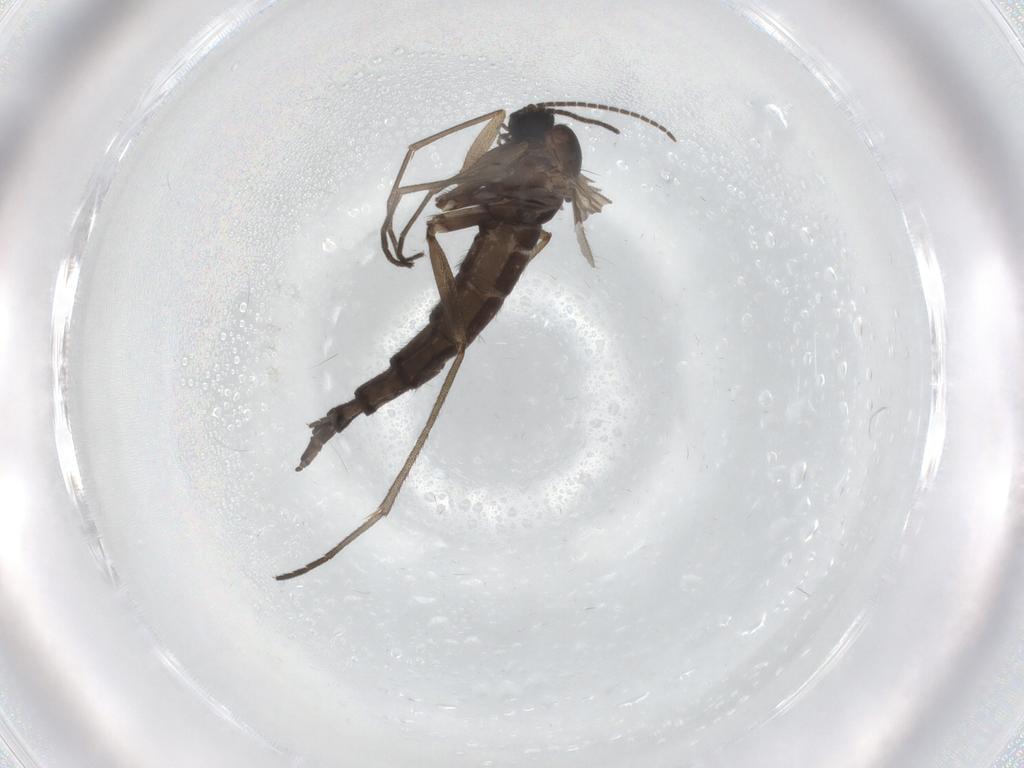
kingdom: Animalia
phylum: Arthropoda
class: Insecta
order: Diptera
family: Sciaridae
